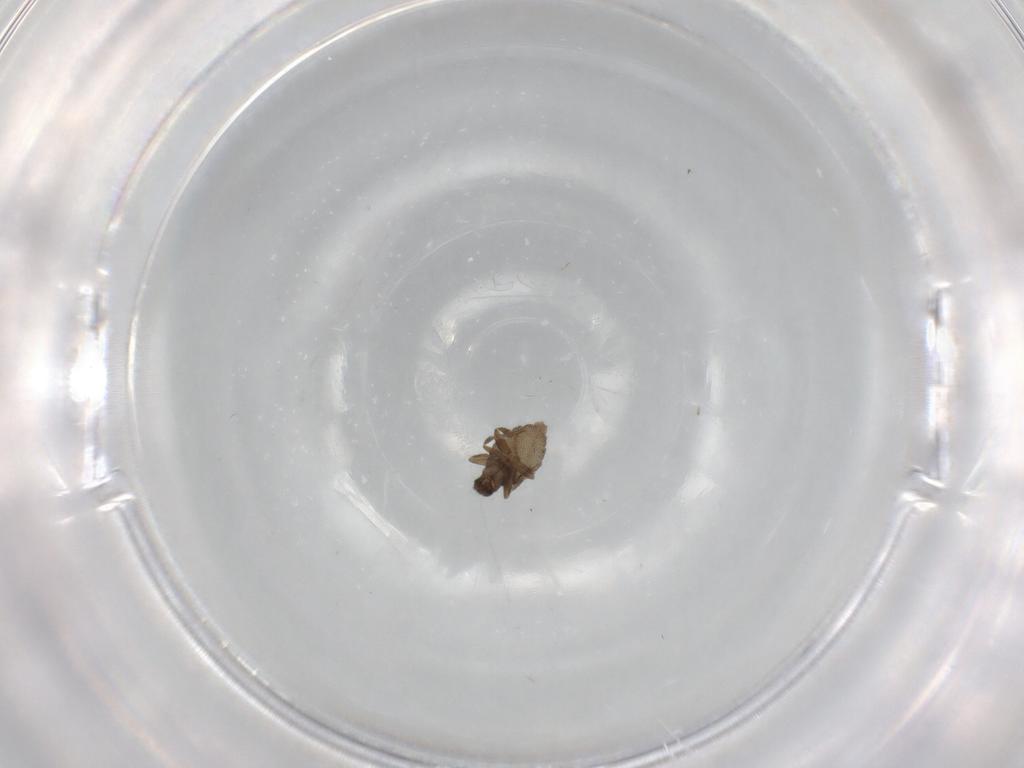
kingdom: Animalia
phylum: Arthropoda
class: Insecta
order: Diptera
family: Phoridae
